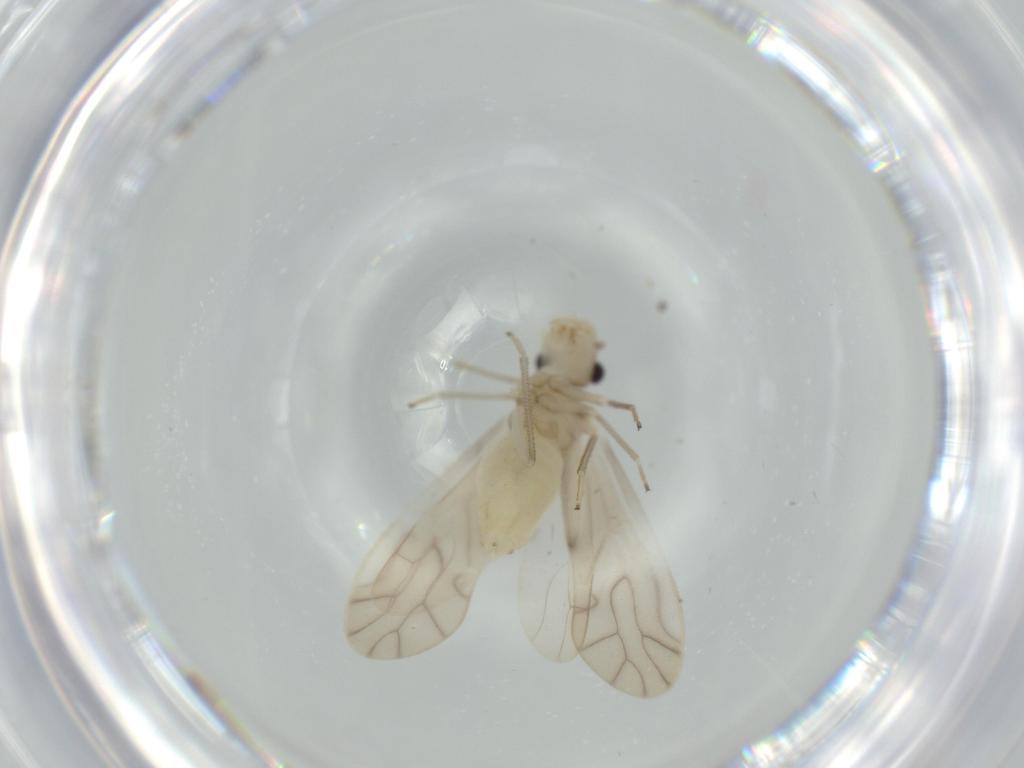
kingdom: Animalia
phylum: Arthropoda
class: Insecta
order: Psocodea
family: Caeciliusidae
